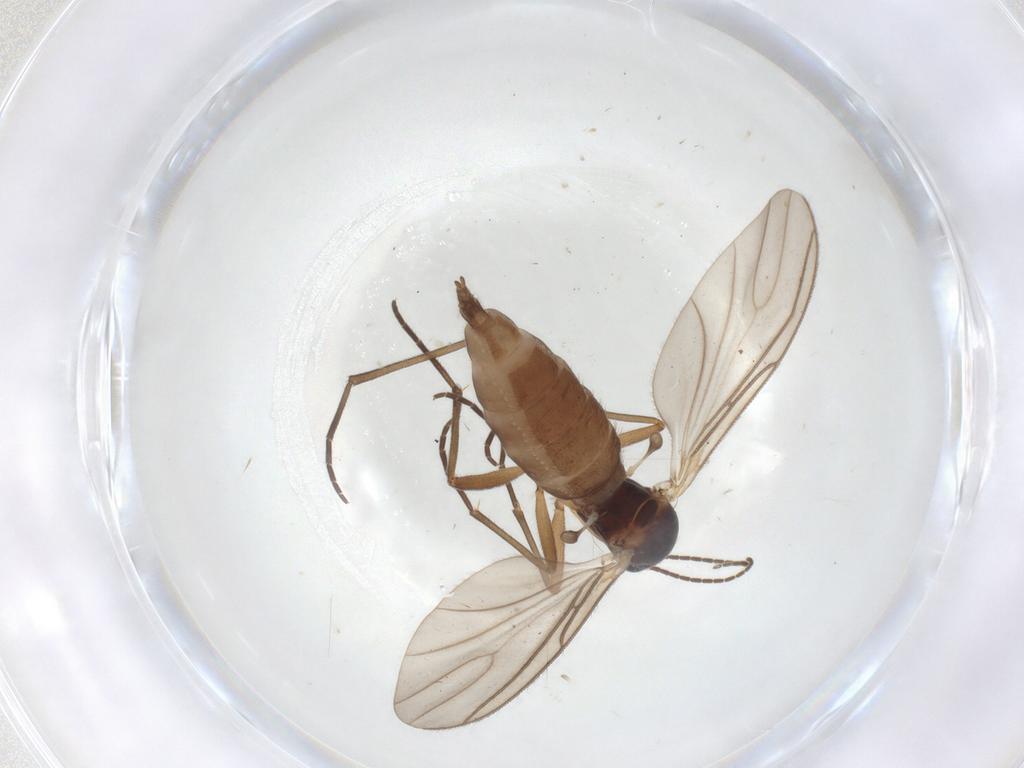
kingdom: Animalia
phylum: Arthropoda
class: Insecta
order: Diptera
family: Sciaridae
